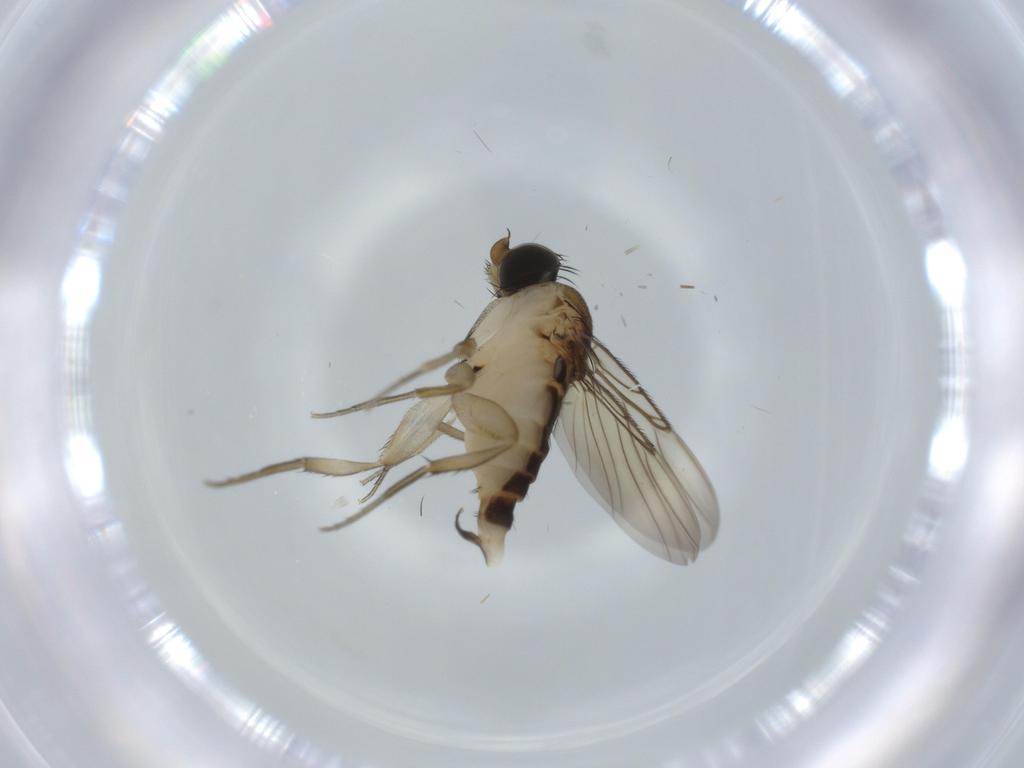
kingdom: Animalia
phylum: Arthropoda
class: Insecta
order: Diptera
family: Phoridae
